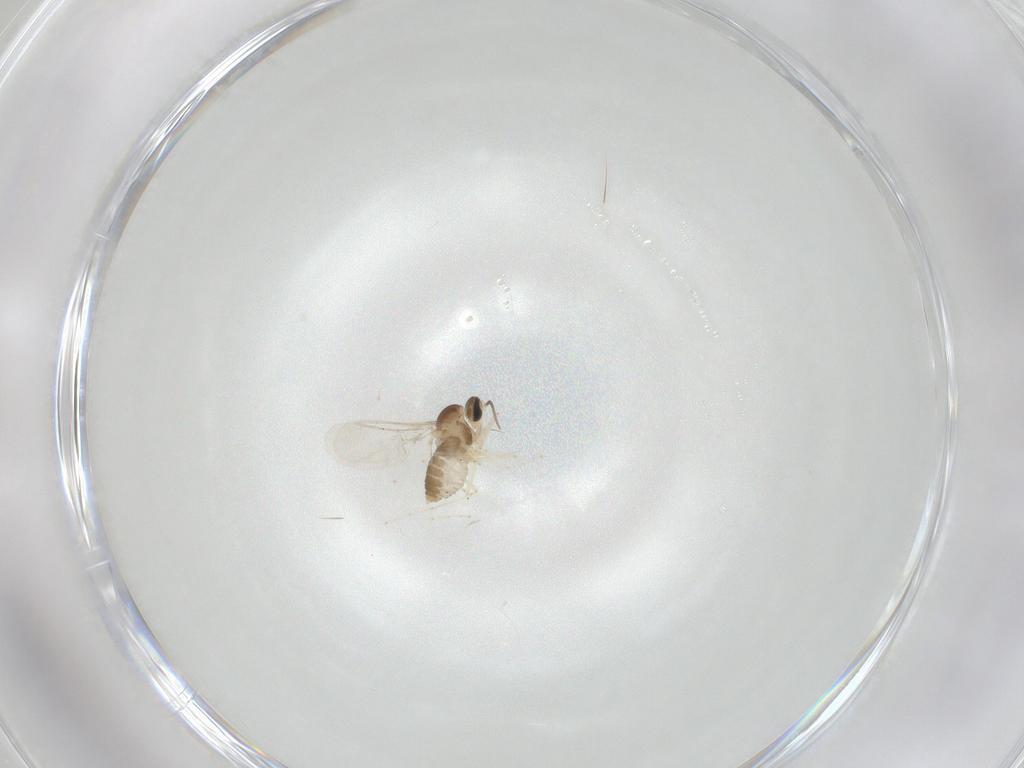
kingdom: Animalia
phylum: Arthropoda
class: Insecta
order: Diptera
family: Cecidomyiidae
